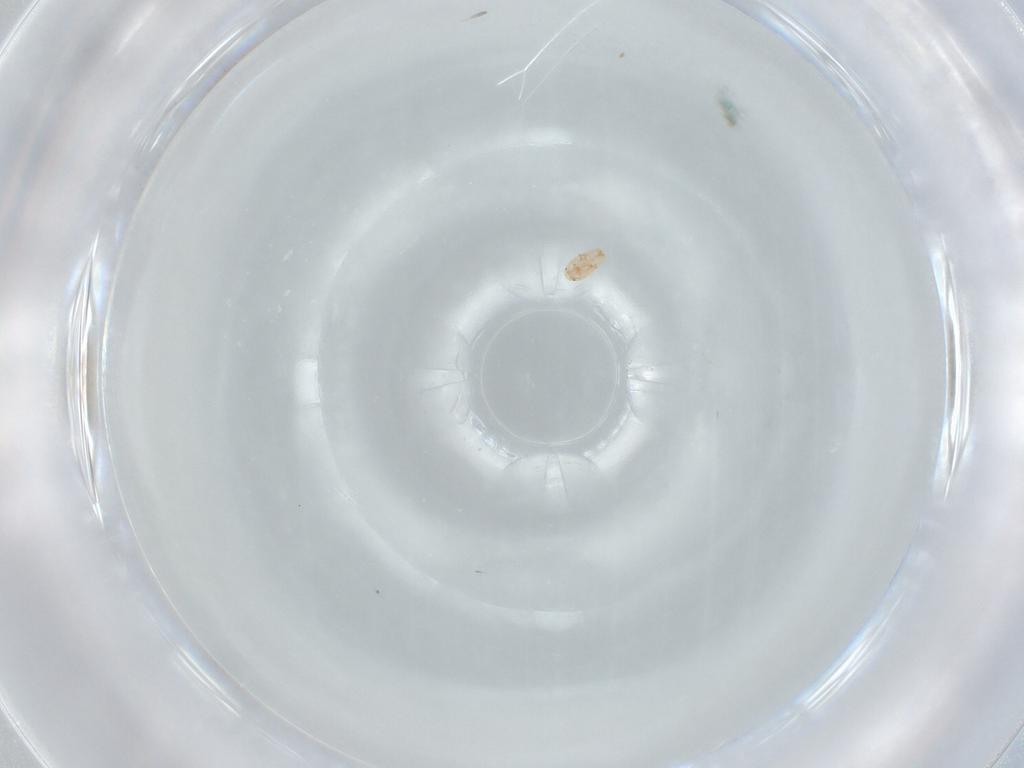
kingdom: Animalia
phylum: Arthropoda
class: Insecta
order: Hemiptera
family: Coccidae
